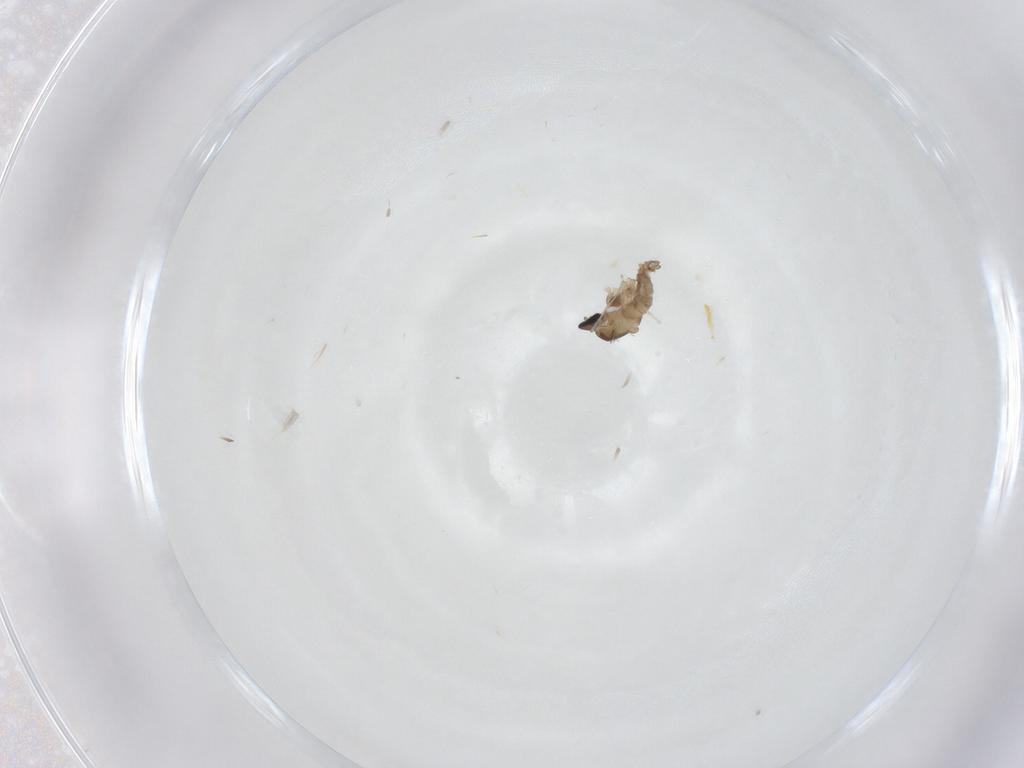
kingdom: Animalia
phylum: Arthropoda
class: Insecta
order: Diptera
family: Cecidomyiidae
